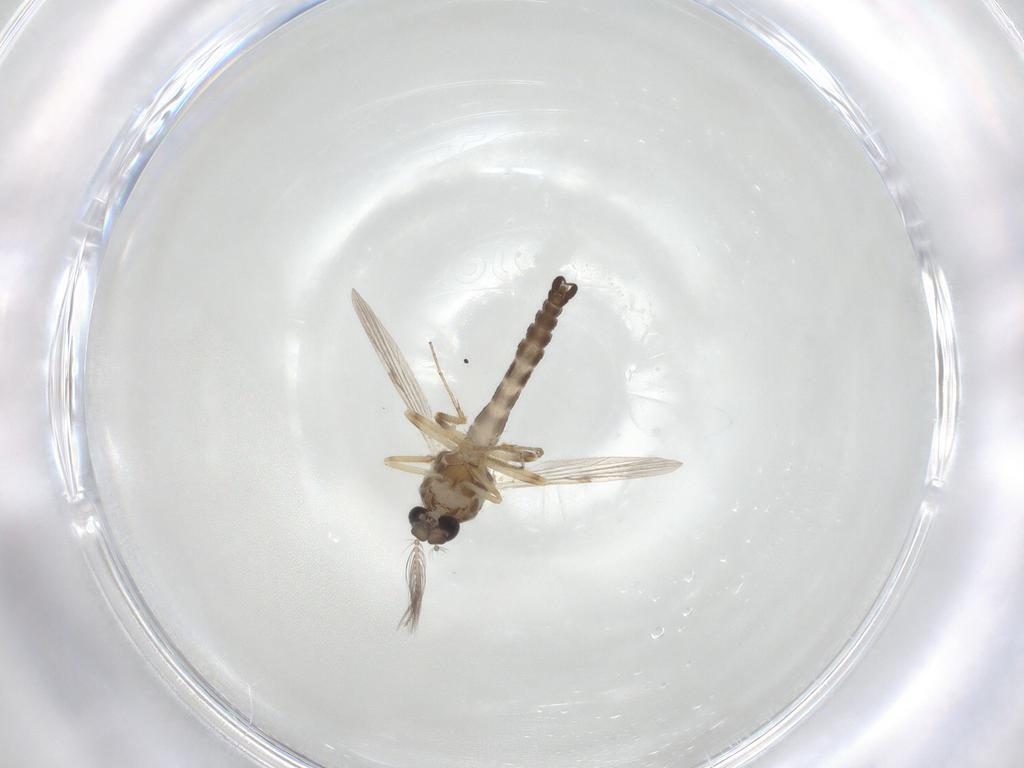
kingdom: Animalia
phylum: Arthropoda
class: Insecta
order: Diptera
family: Ceratopogonidae
